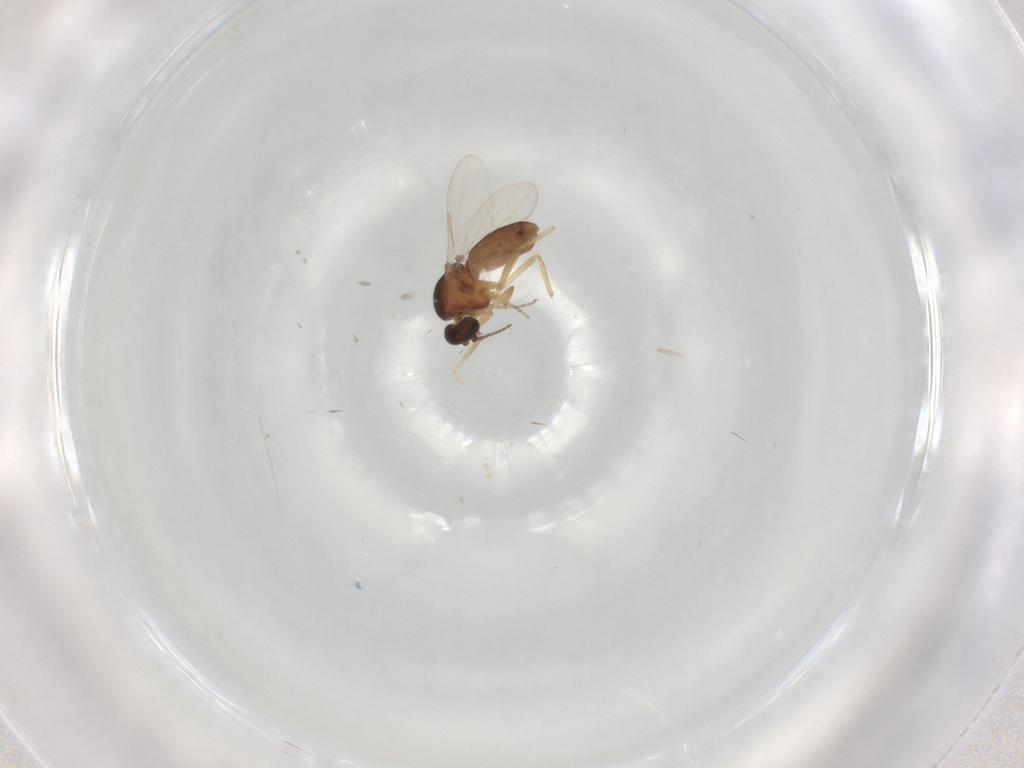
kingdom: Animalia
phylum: Arthropoda
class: Insecta
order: Diptera
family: Ceratopogonidae
